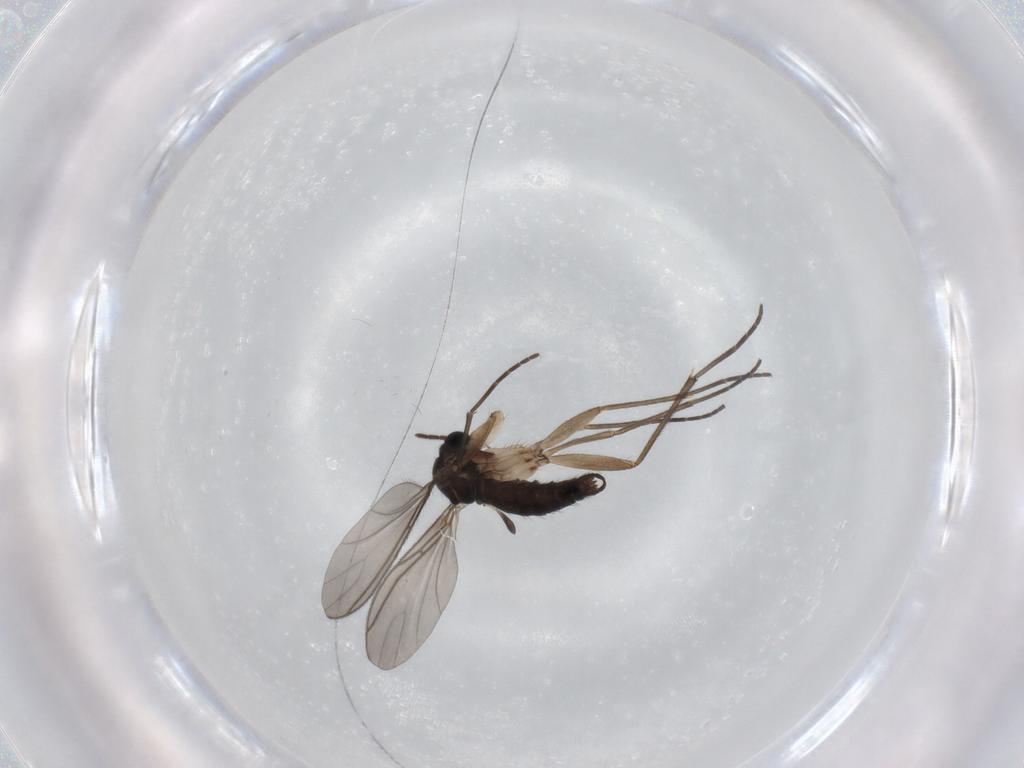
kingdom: Animalia
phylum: Arthropoda
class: Insecta
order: Diptera
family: Sciaridae
